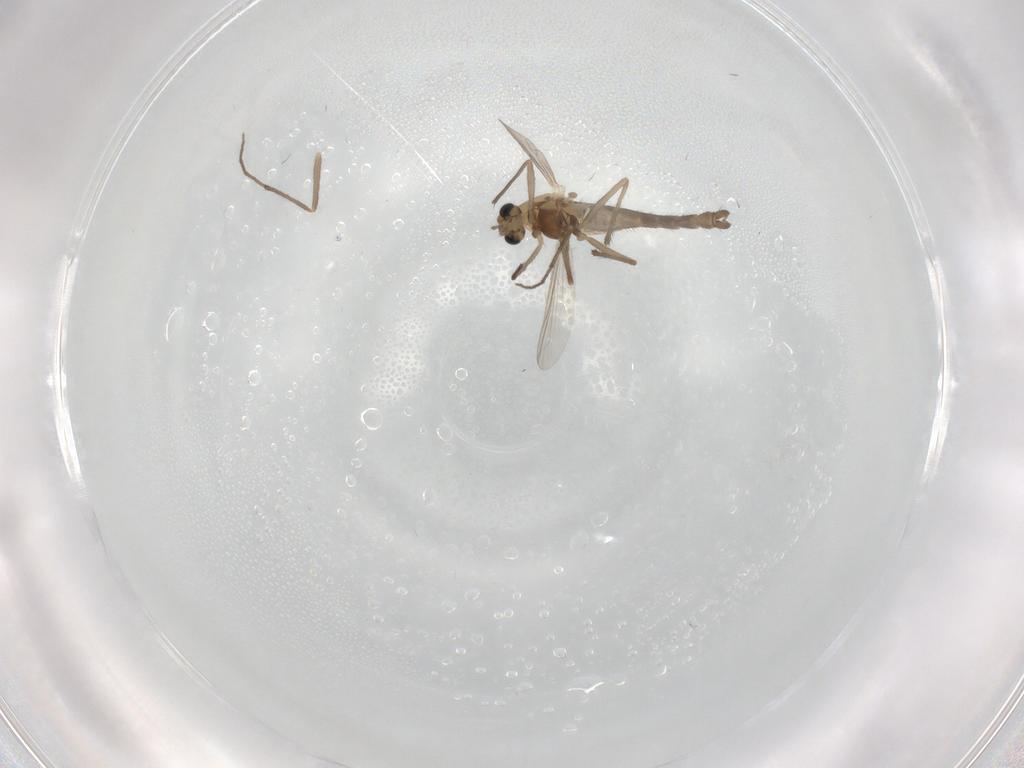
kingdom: Animalia
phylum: Arthropoda
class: Insecta
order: Diptera
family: Chironomidae
